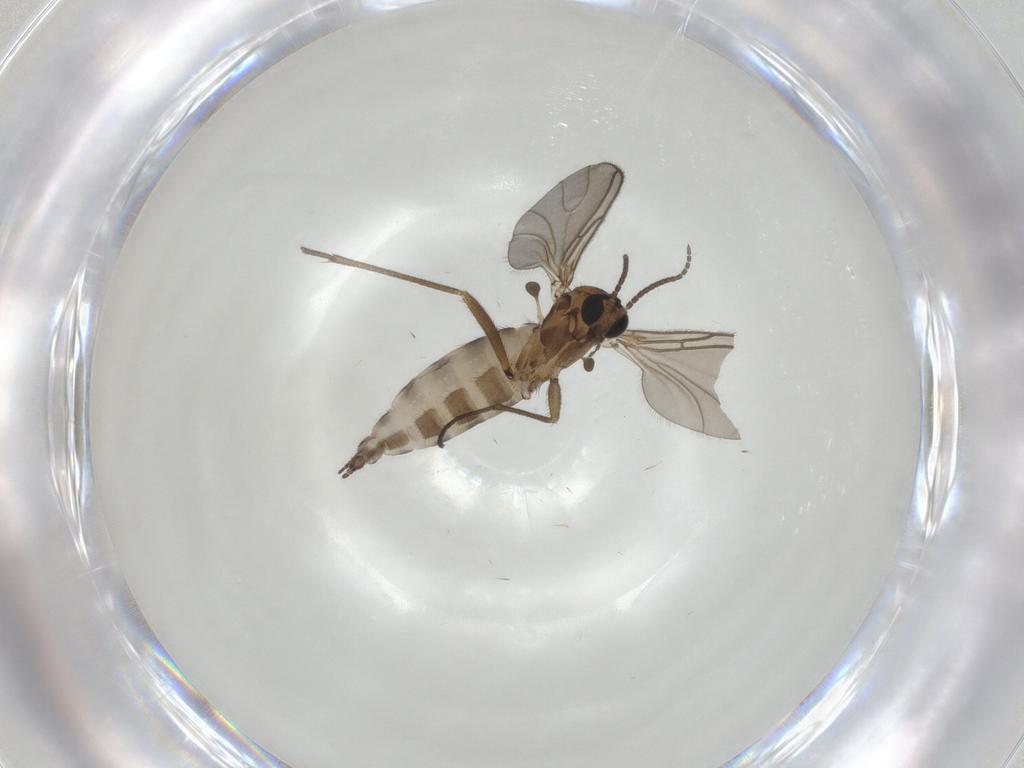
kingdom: Animalia
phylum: Arthropoda
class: Insecta
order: Diptera
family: Sciaridae
